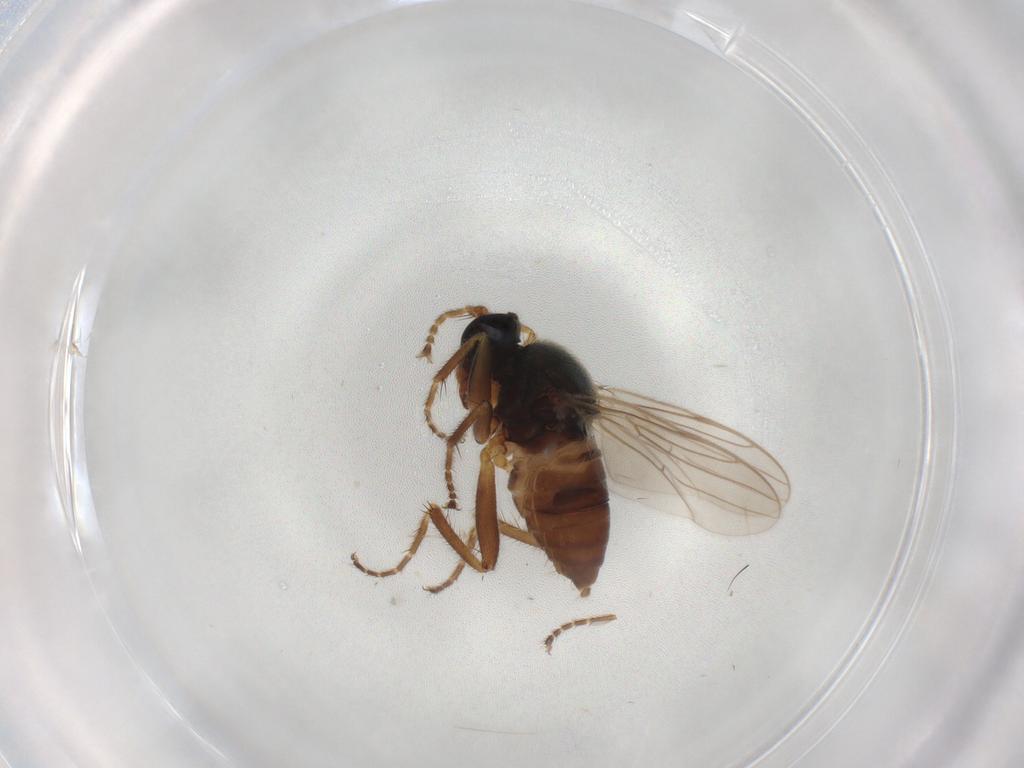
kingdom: Animalia
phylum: Arthropoda
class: Insecta
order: Diptera
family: Hybotidae
